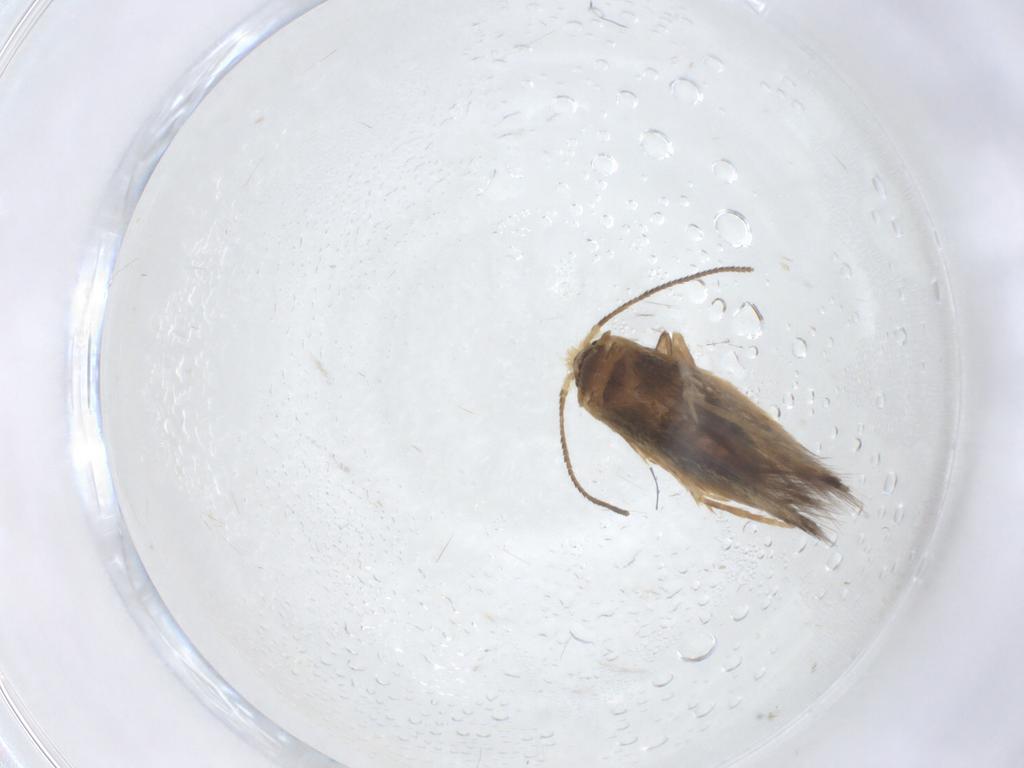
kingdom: Animalia
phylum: Arthropoda
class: Insecta
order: Lepidoptera
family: Nepticulidae
